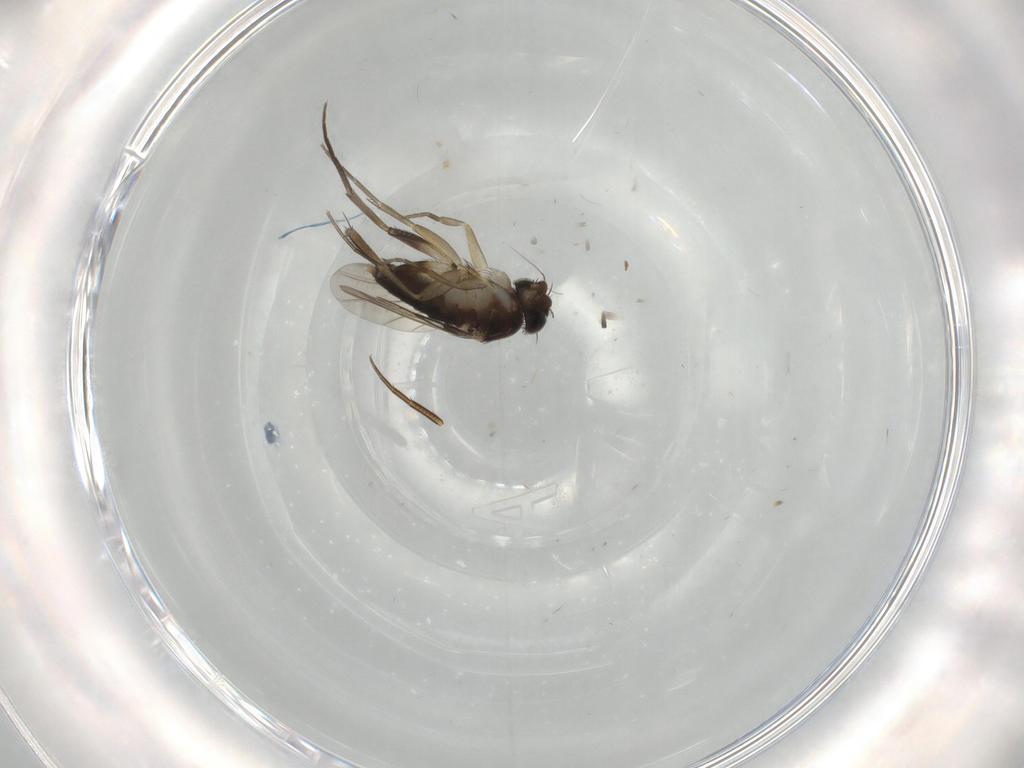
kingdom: Animalia
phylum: Arthropoda
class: Insecta
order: Diptera
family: Phoridae
